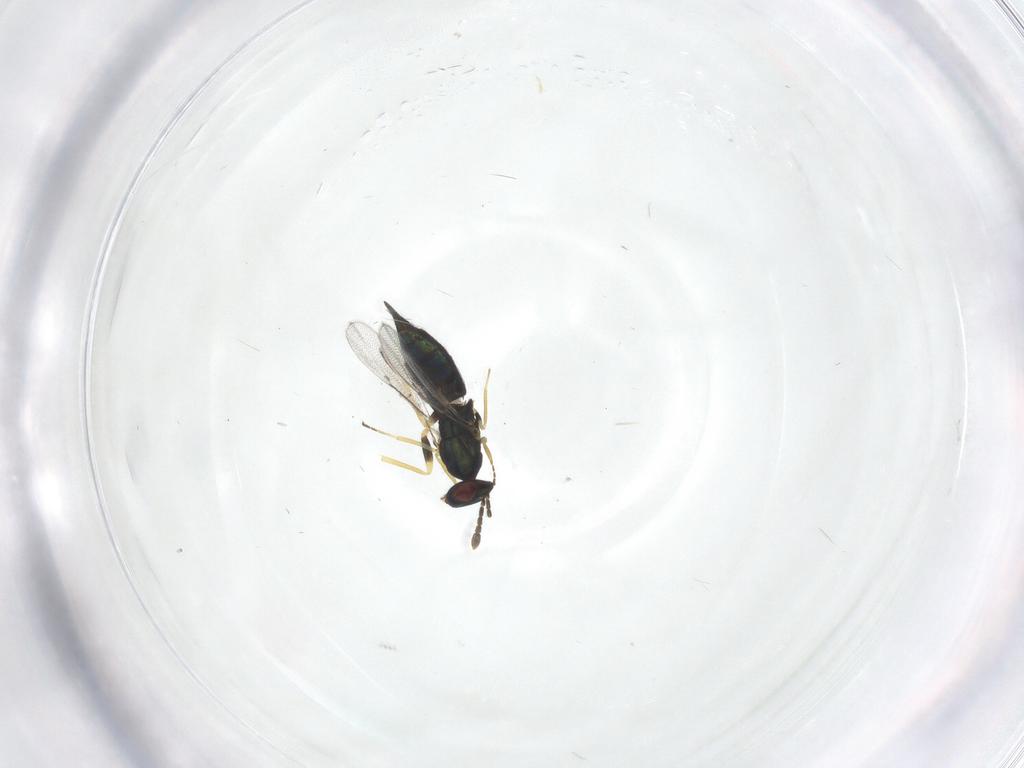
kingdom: Animalia
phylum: Arthropoda
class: Insecta
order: Hymenoptera
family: Eulophidae
